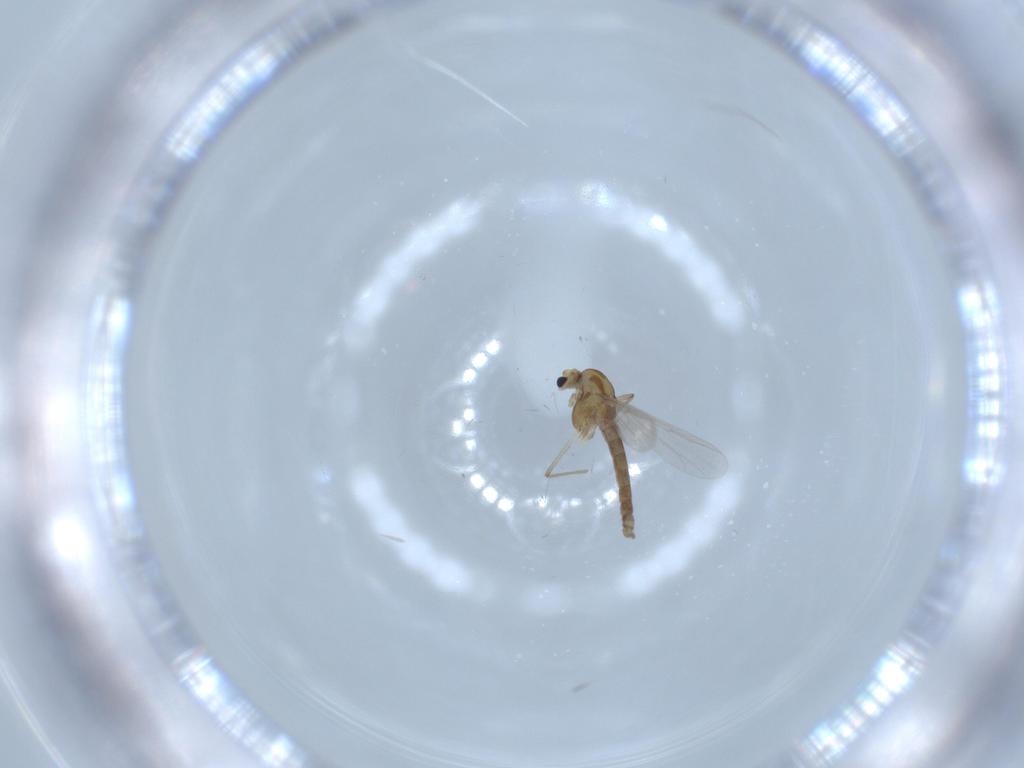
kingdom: Animalia
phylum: Arthropoda
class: Insecta
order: Diptera
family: Chironomidae
